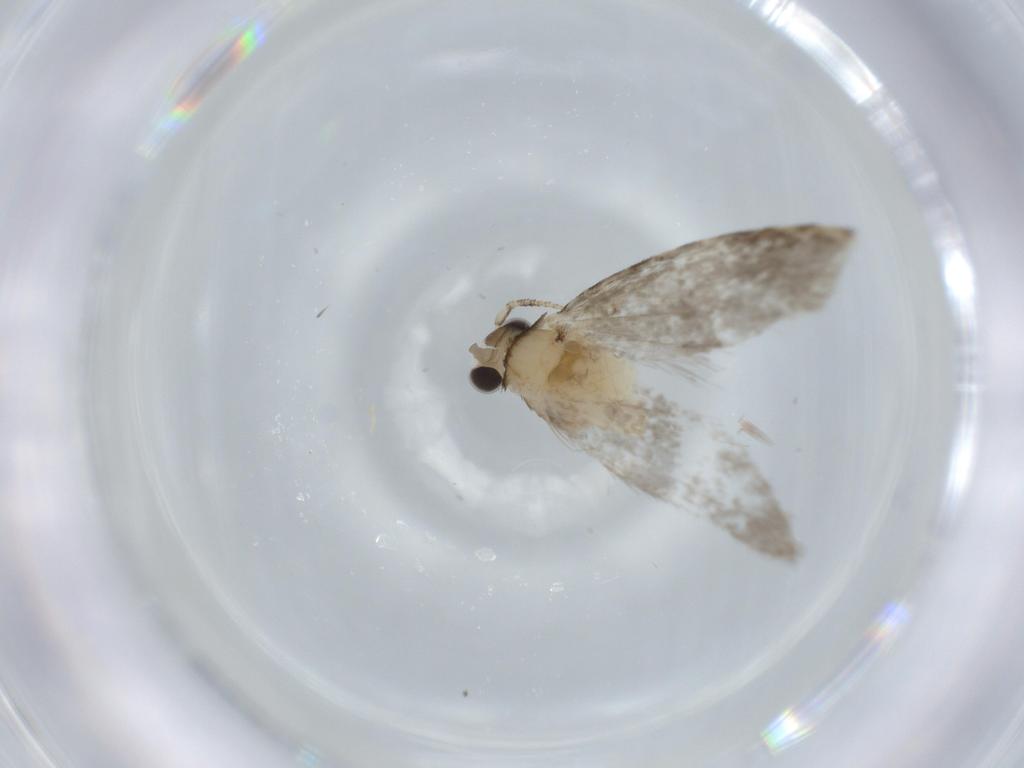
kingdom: Animalia
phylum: Arthropoda
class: Insecta
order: Lepidoptera
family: Tineidae
